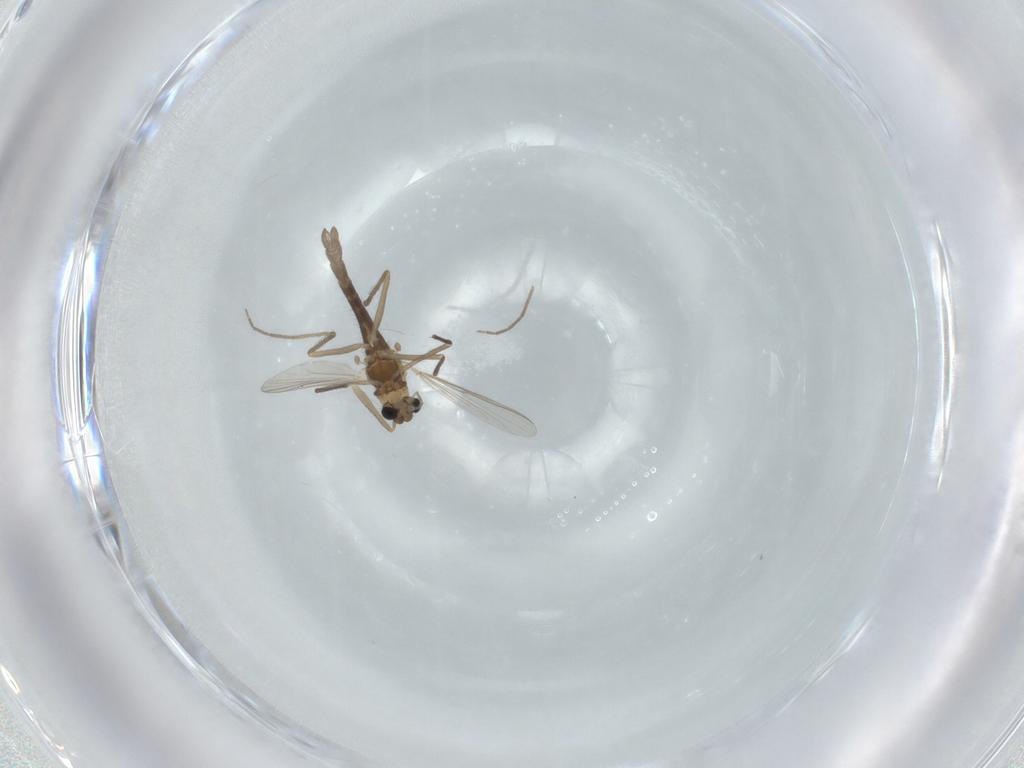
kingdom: Animalia
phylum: Arthropoda
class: Insecta
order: Diptera
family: Chironomidae
